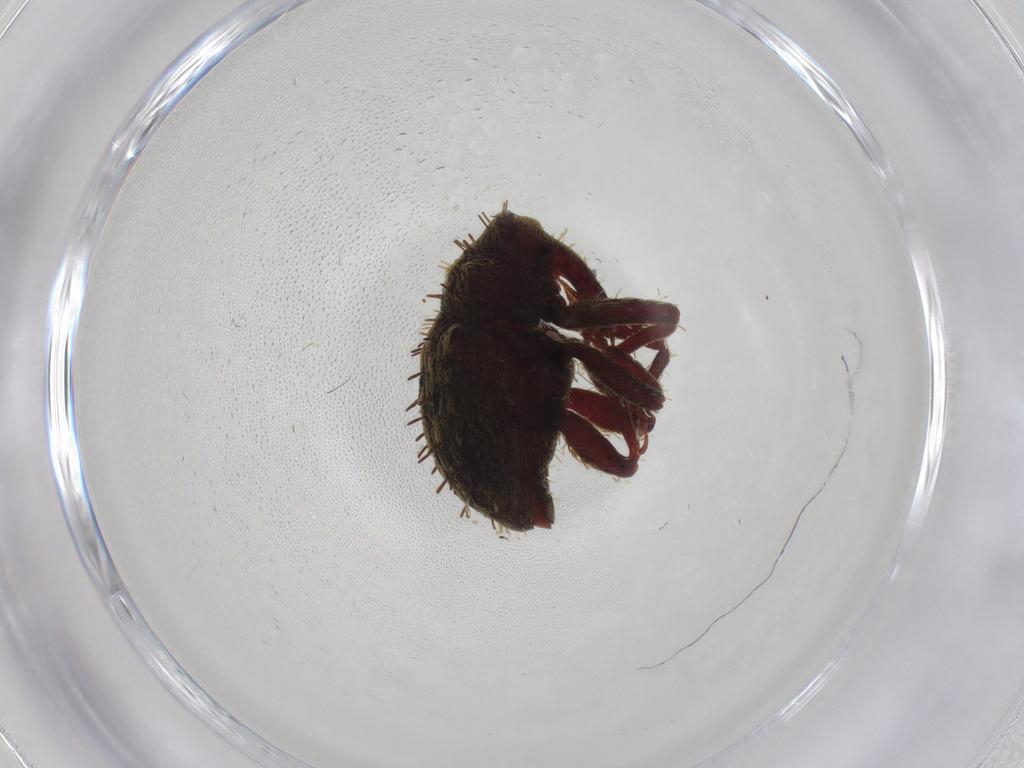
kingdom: Animalia
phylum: Arthropoda
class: Insecta
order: Coleoptera
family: Curculionidae
